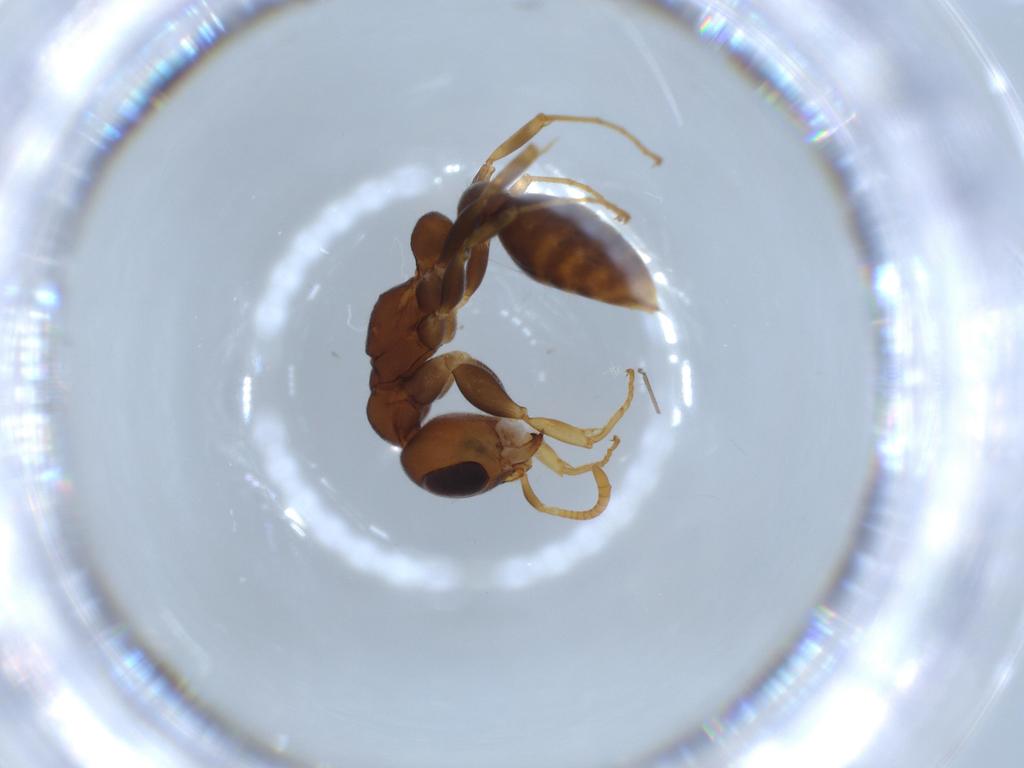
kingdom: Animalia
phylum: Arthropoda
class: Insecta
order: Hymenoptera
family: Formicidae
